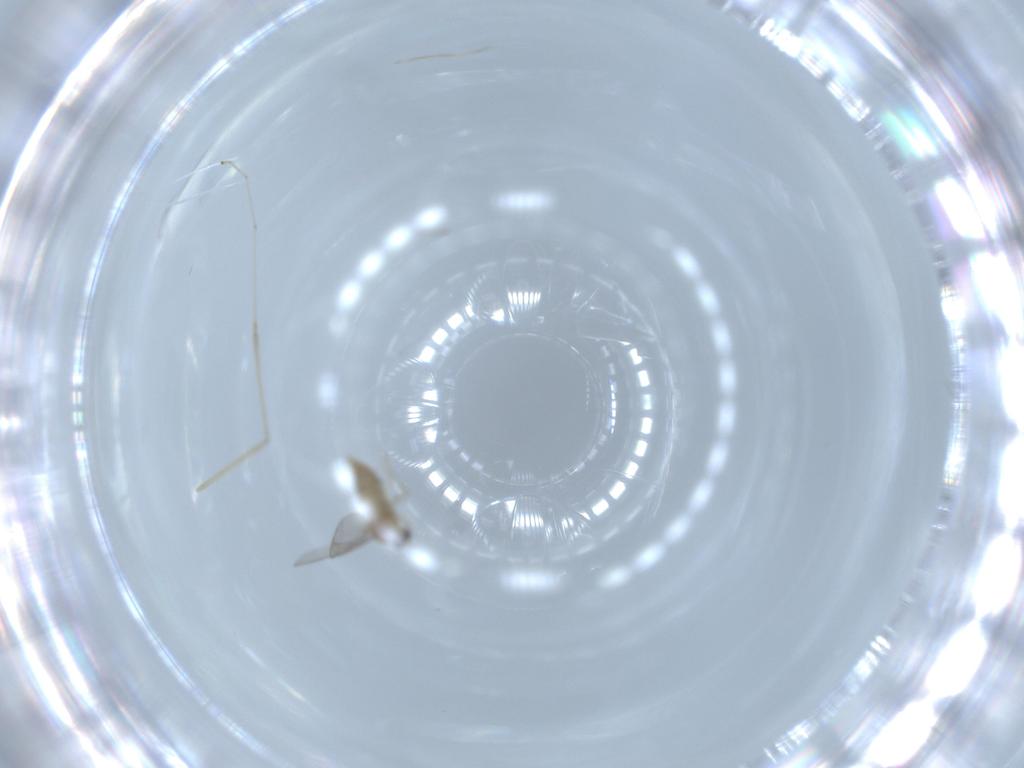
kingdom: Animalia
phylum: Arthropoda
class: Insecta
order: Diptera
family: Cecidomyiidae
